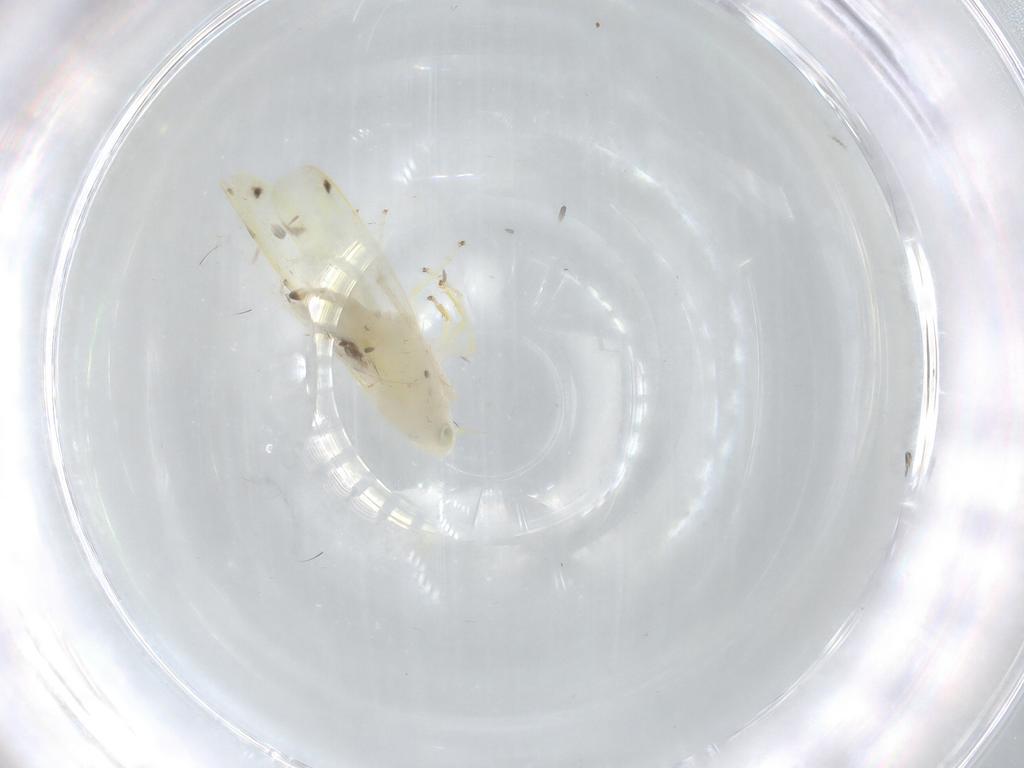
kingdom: Animalia
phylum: Arthropoda
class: Insecta
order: Hemiptera
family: Cicadellidae
